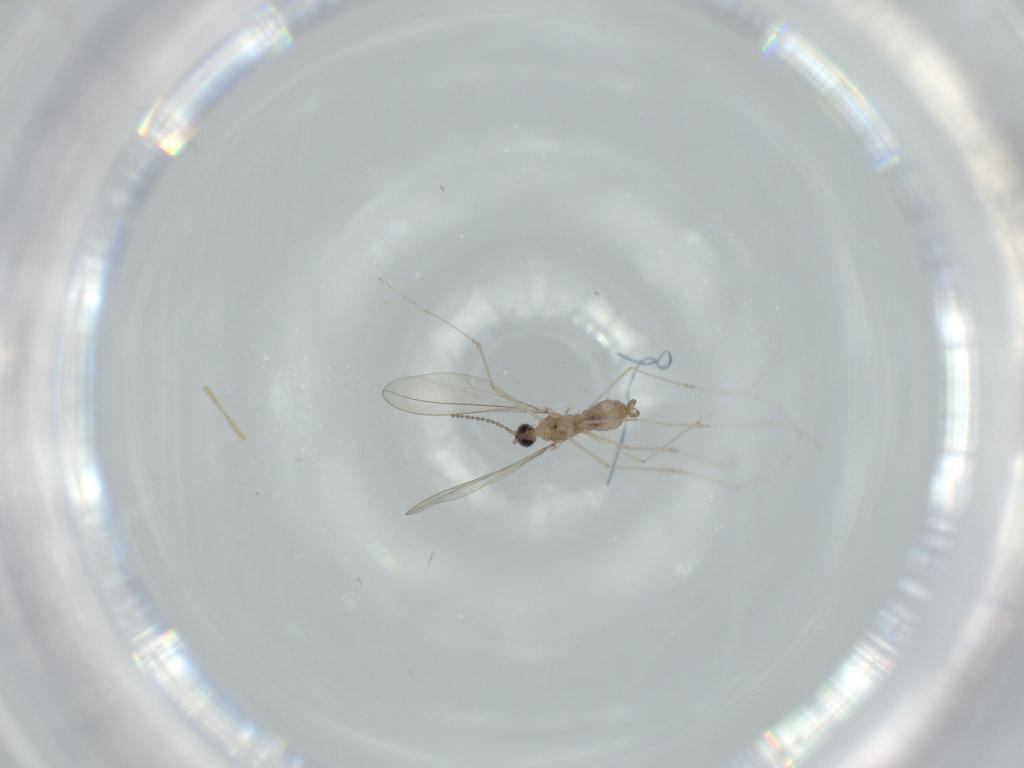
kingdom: Animalia
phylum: Arthropoda
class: Insecta
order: Diptera
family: Cecidomyiidae
